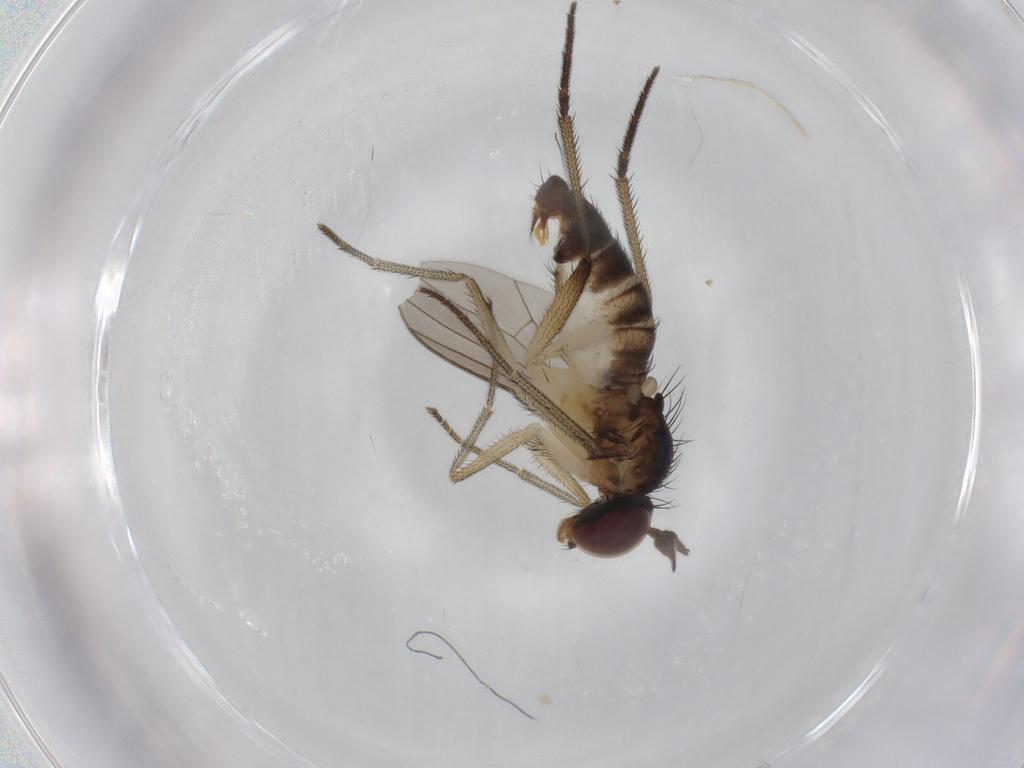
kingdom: Animalia
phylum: Arthropoda
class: Insecta
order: Diptera
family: Dolichopodidae
